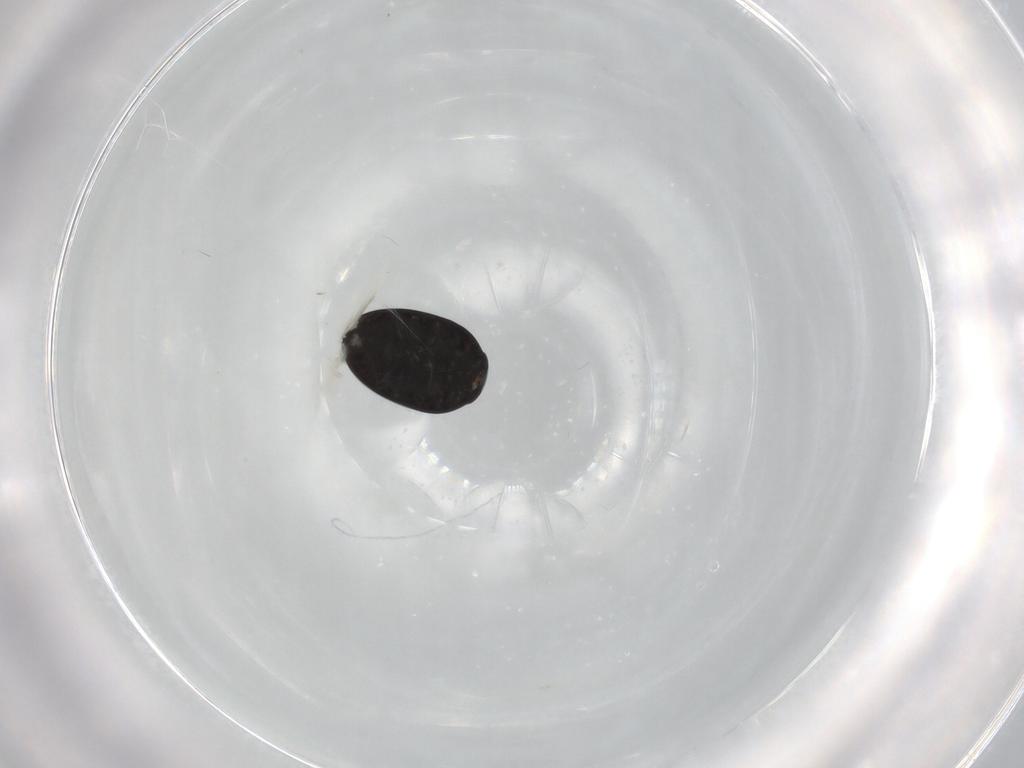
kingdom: Animalia
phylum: Arthropoda
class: Insecta
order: Coleoptera
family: Phalacridae
